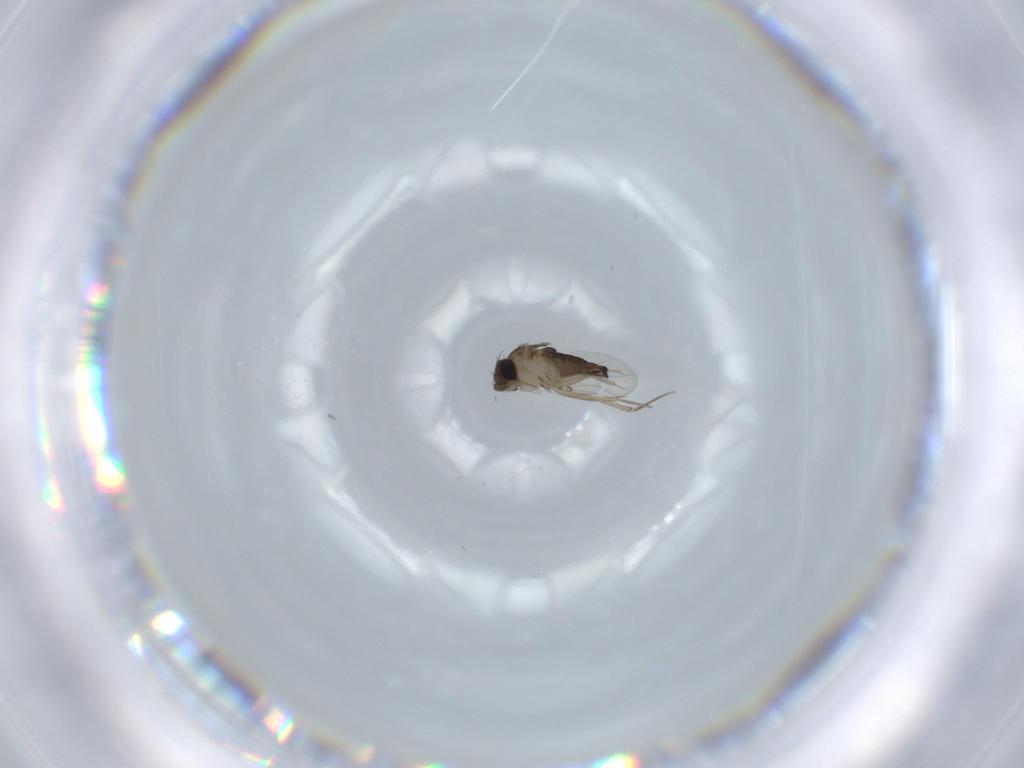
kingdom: Animalia
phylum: Arthropoda
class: Insecta
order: Diptera
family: Phoridae
